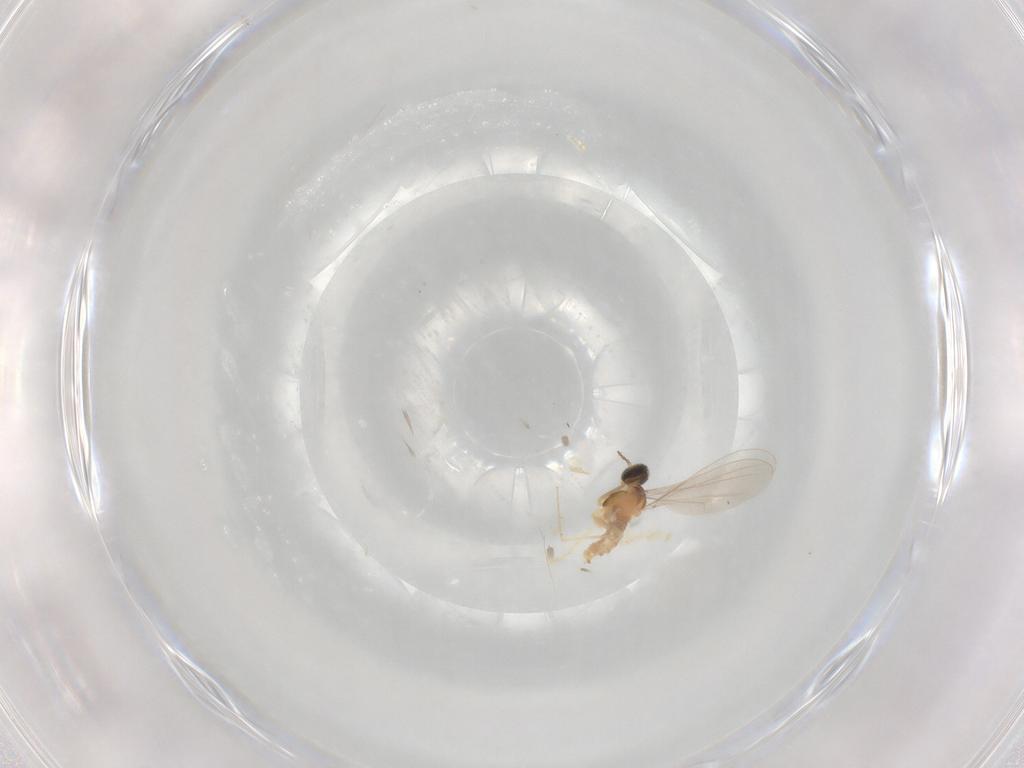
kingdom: Animalia
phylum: Arthropoda
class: Insecta
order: Diptera
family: Cecidomyiidae
